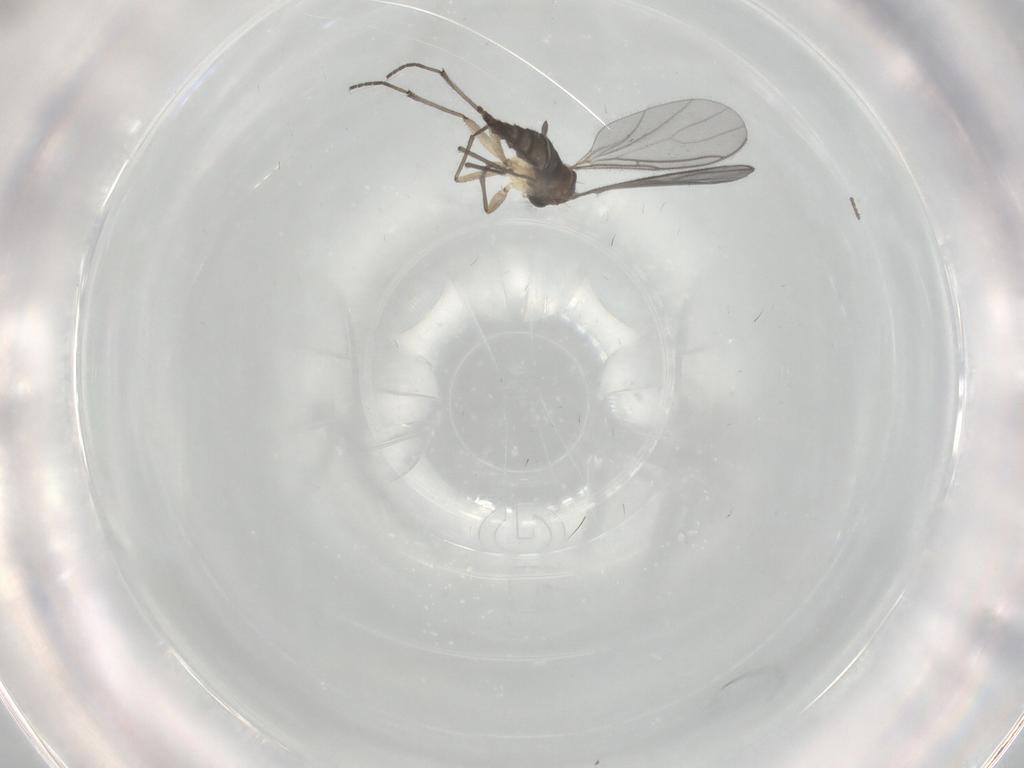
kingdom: Animalia
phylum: Arthropoda
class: Insecta
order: Diptera
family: Sciaridae
